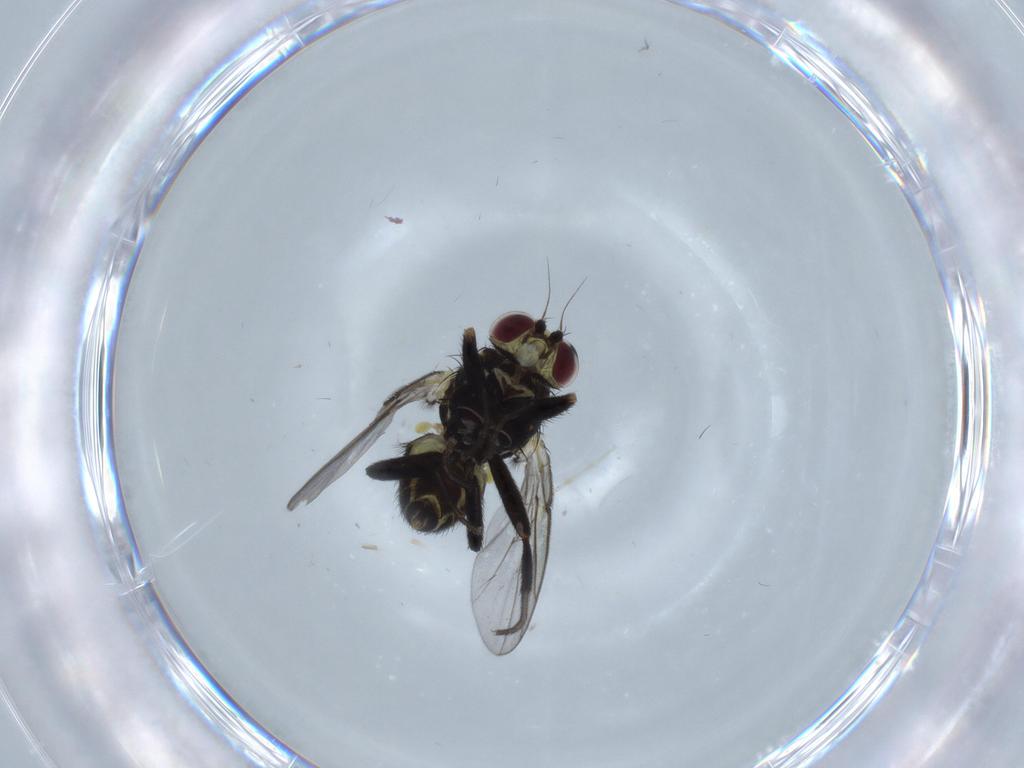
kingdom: Animalia
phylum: Arthropoda
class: Insecta
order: Diptera
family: Agromyzidae
